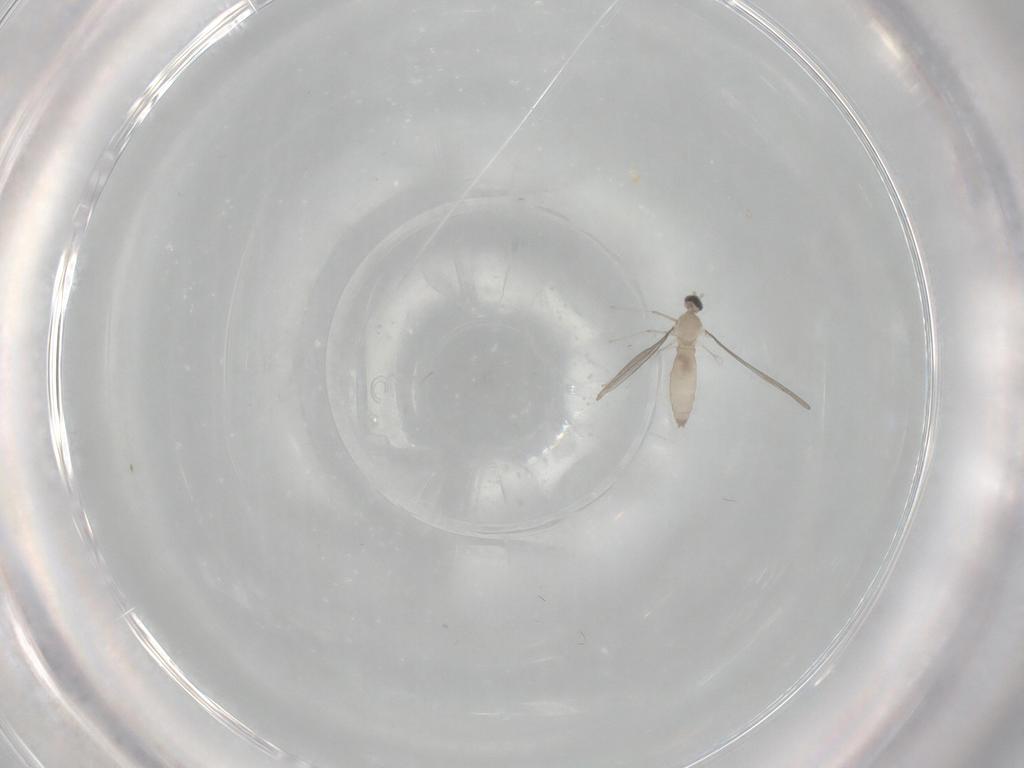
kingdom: Animalia
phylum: Arthropoda
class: Insecta
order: Diptera
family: Cecidomyiidae
